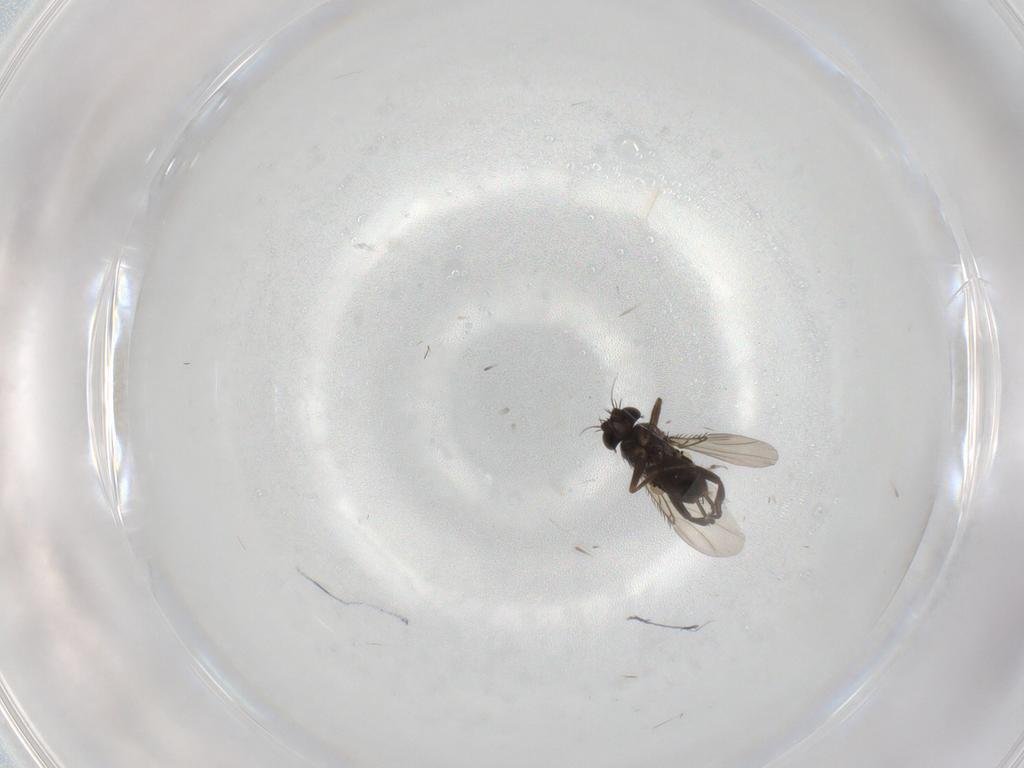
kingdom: Animalia
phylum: Arthropoda
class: Insecta
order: Diptera
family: Phoridae
